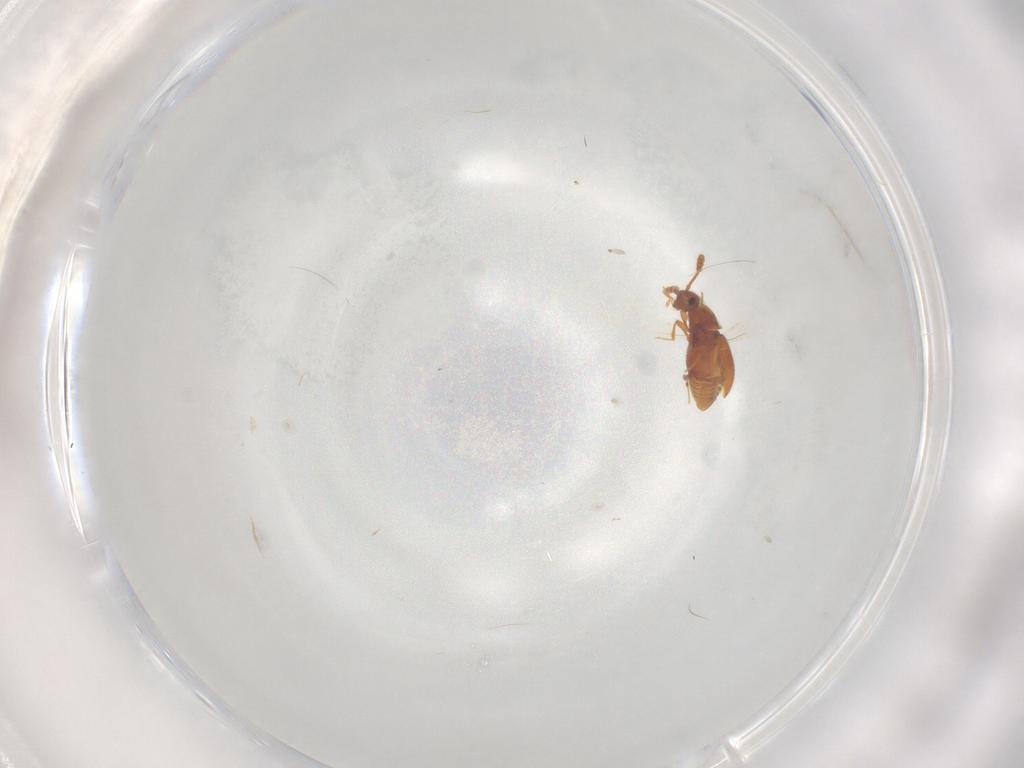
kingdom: Animalia
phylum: Arthropoda
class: Insecta
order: Coleoptera
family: Staphylinidae
